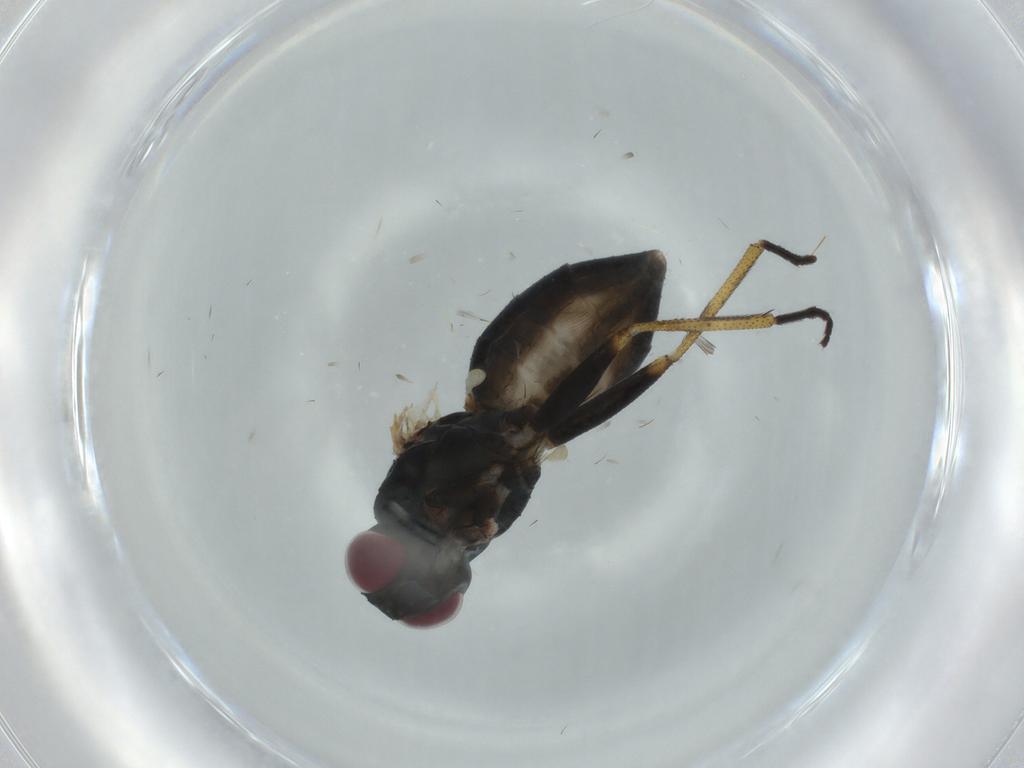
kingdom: Animalia
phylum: Arthropoda
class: Insecta
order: Diptera
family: Muscidae
